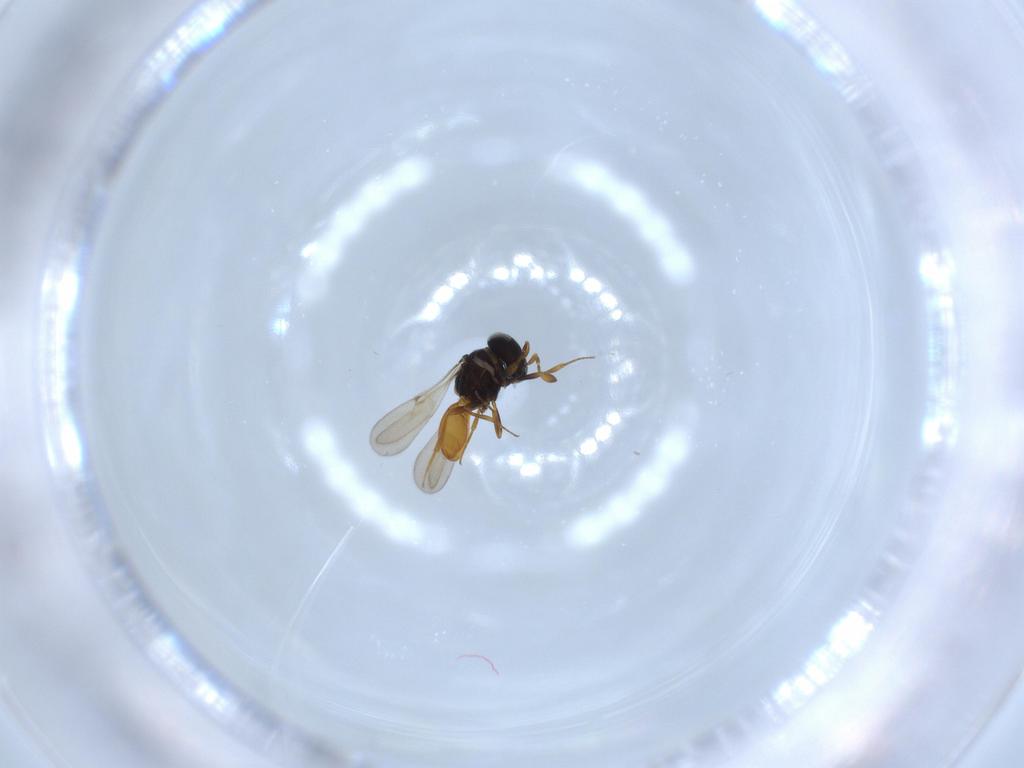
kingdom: Animalia
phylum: Arthropoda
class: Insecta
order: Hymenoptera
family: Scelionidae
